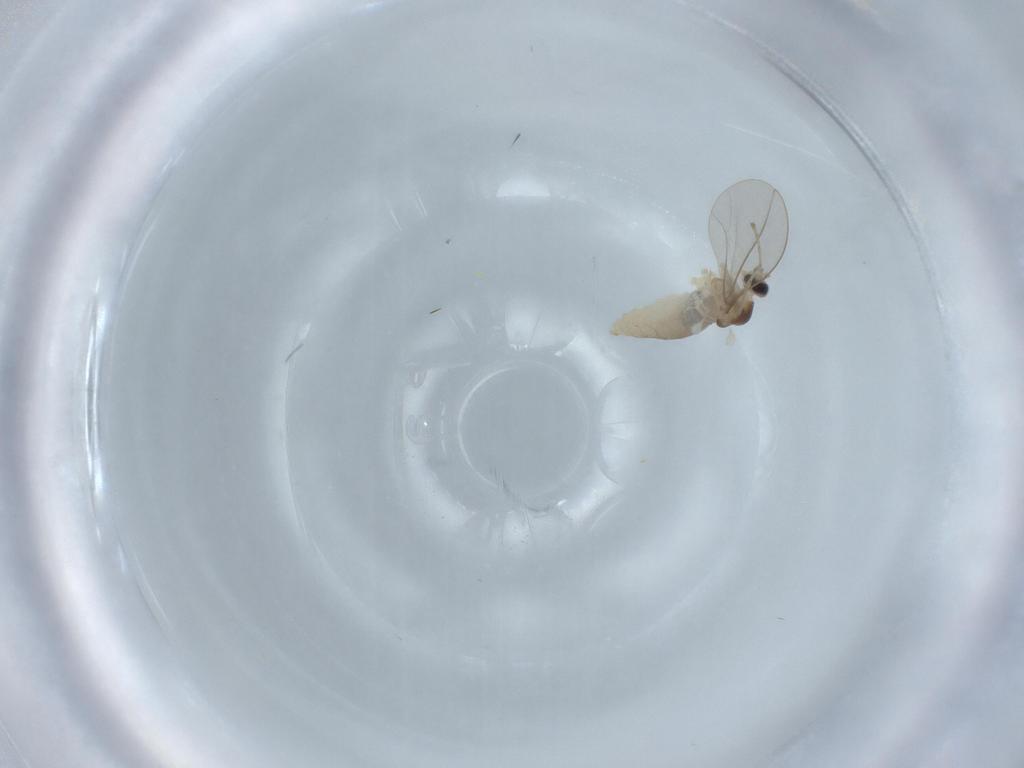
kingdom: Animalia
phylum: Arthropoda
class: Insecta
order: Diptera
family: Cecidomyiidae
